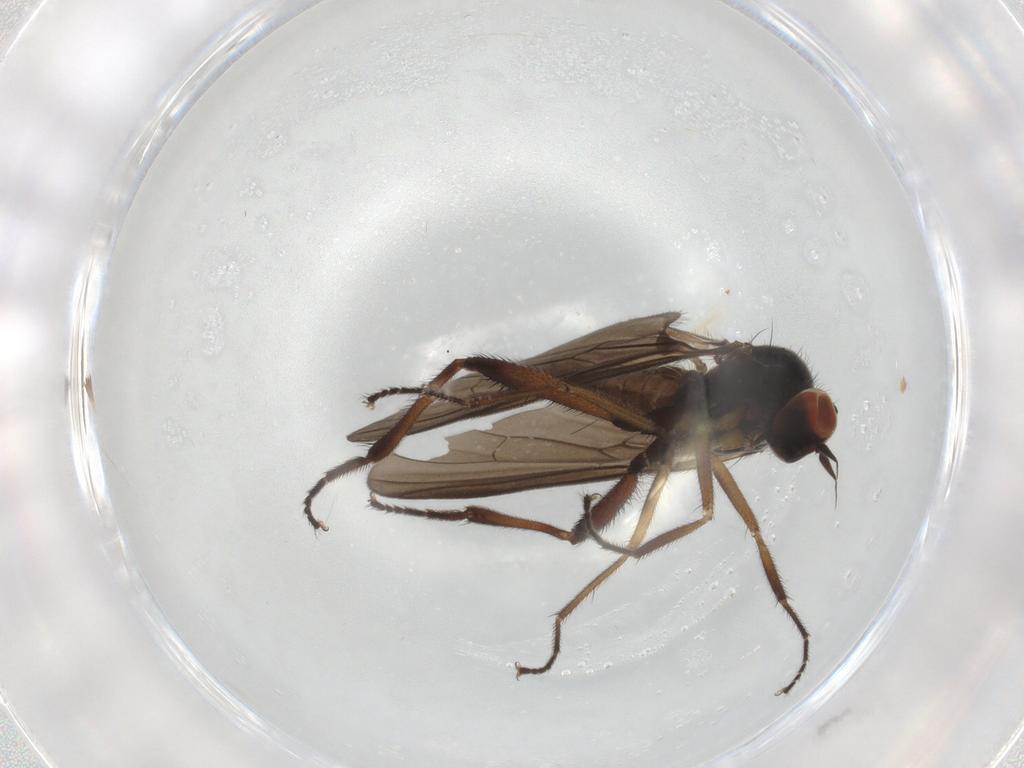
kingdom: Animalia
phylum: Arthropoda
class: Insecta
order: Diptera
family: Hybotidae
